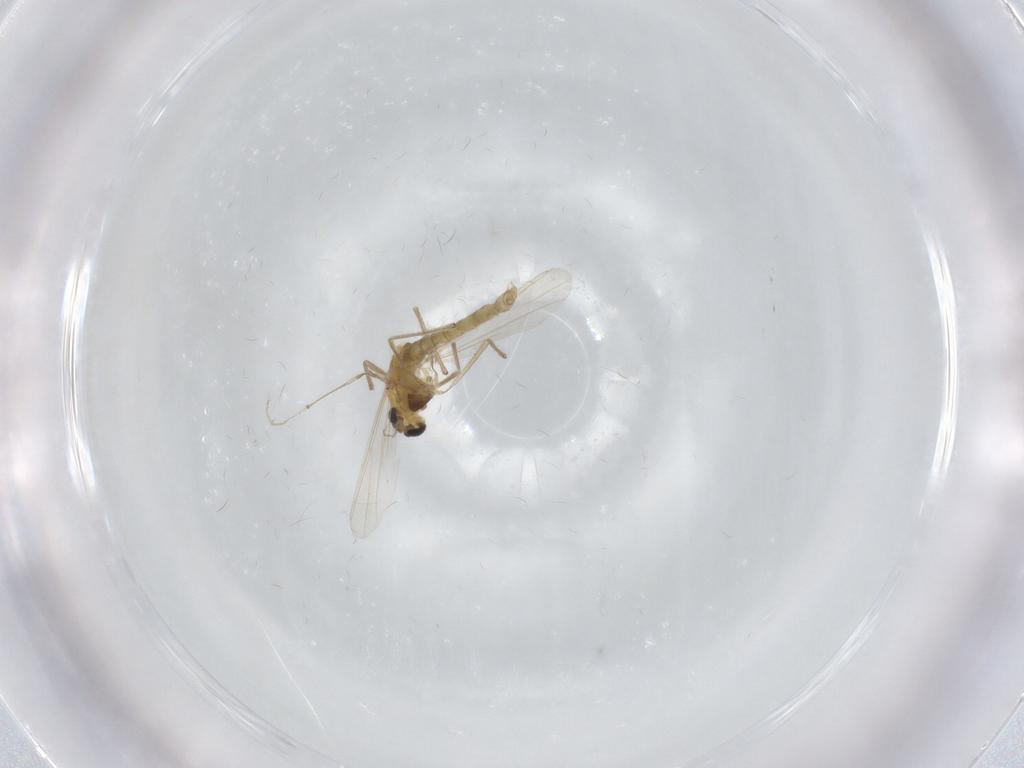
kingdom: Animalia
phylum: Arthropoda
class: Insecta
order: Diptera
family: Chironomidae
